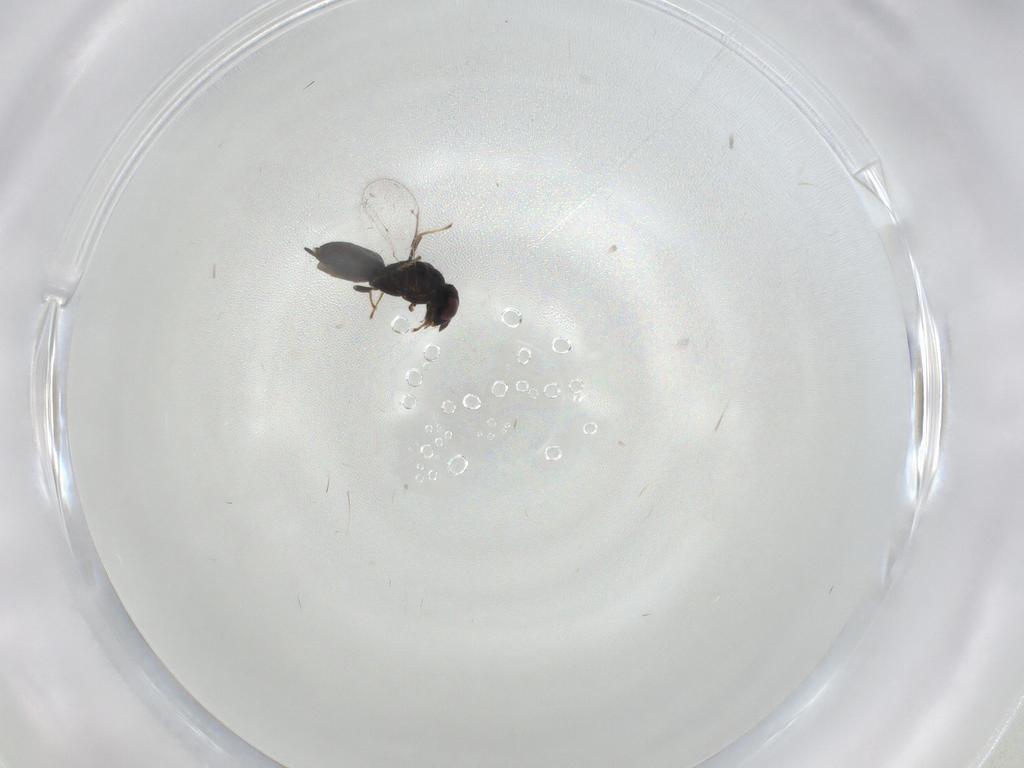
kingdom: Animalia
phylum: Arthropoda
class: Insecta
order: Hymenoptera
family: Pirenidae
